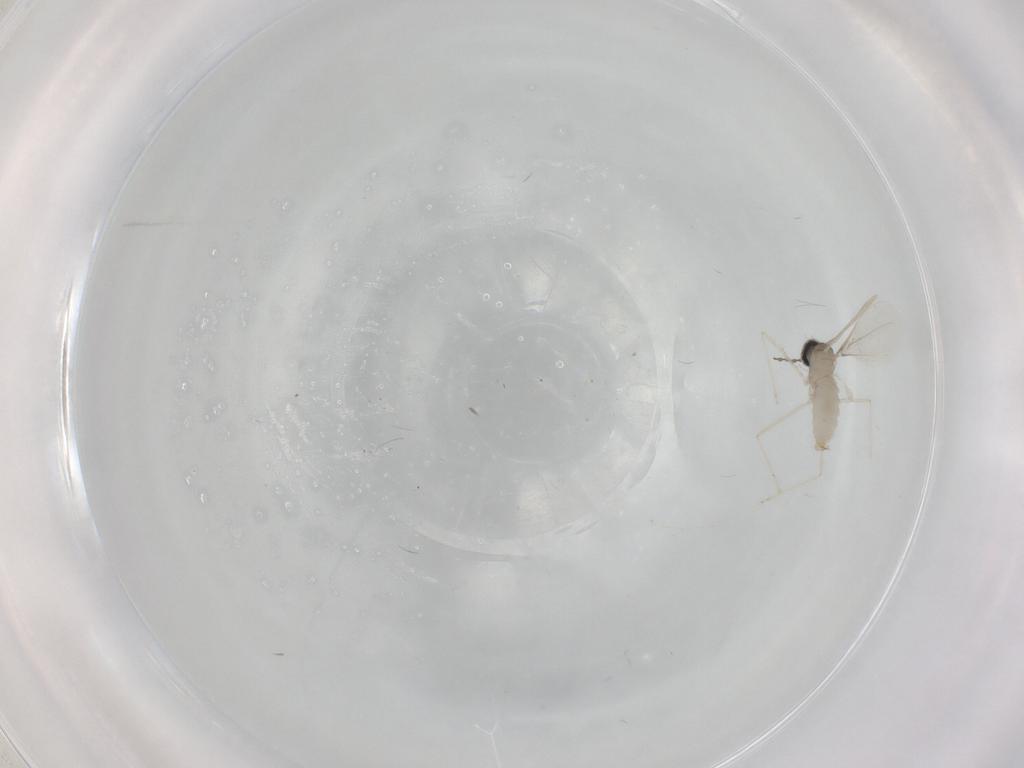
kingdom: Animalia
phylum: Arthropoda
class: Insecta
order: Diptera
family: Cecidomyiidae
